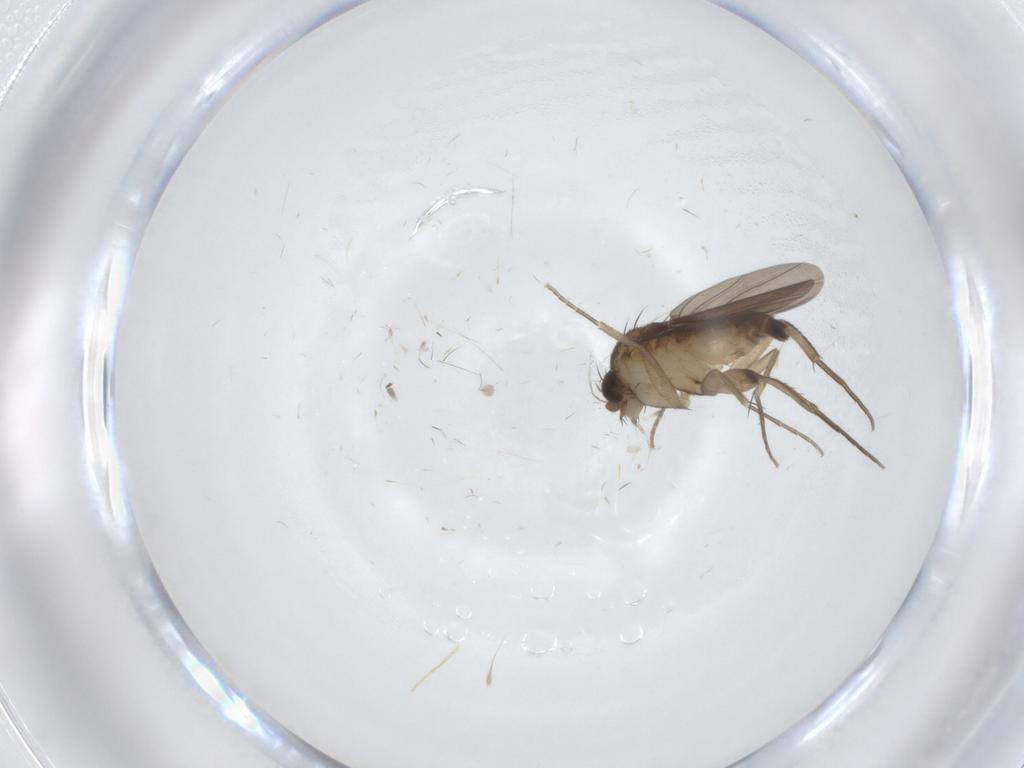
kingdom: Animalia
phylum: Arthropoda
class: Insecta
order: Diptera
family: Phoridae
